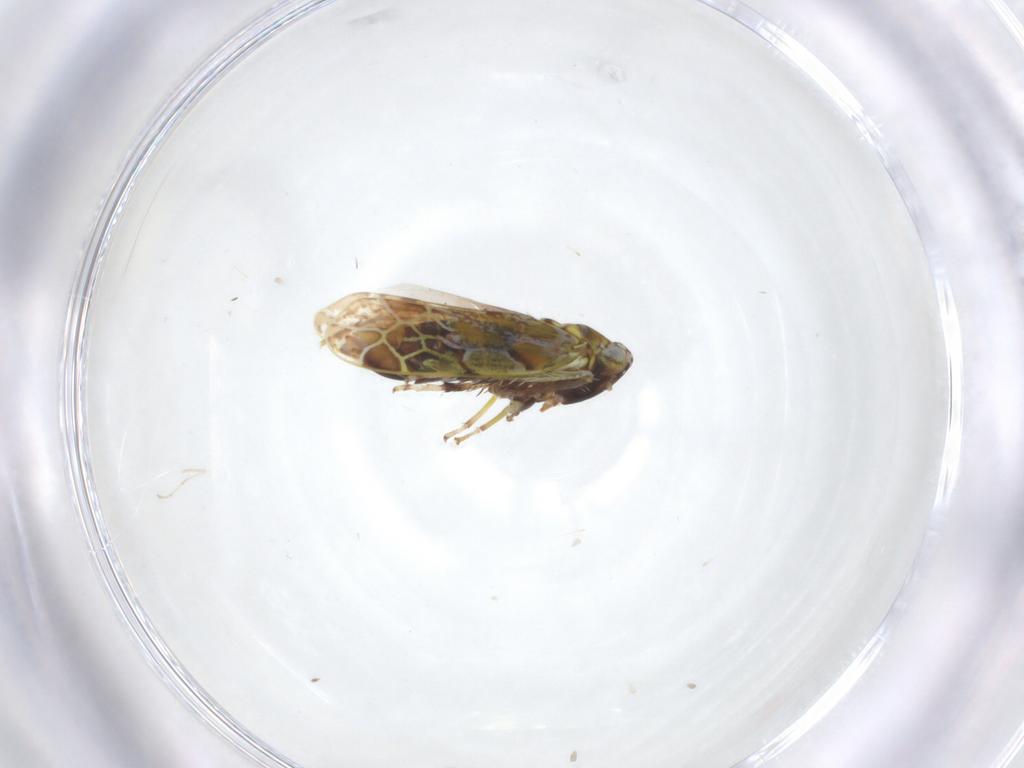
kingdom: Animalia
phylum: Arthropoda
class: Insecta
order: Hemiptera
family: Cicadellidae
